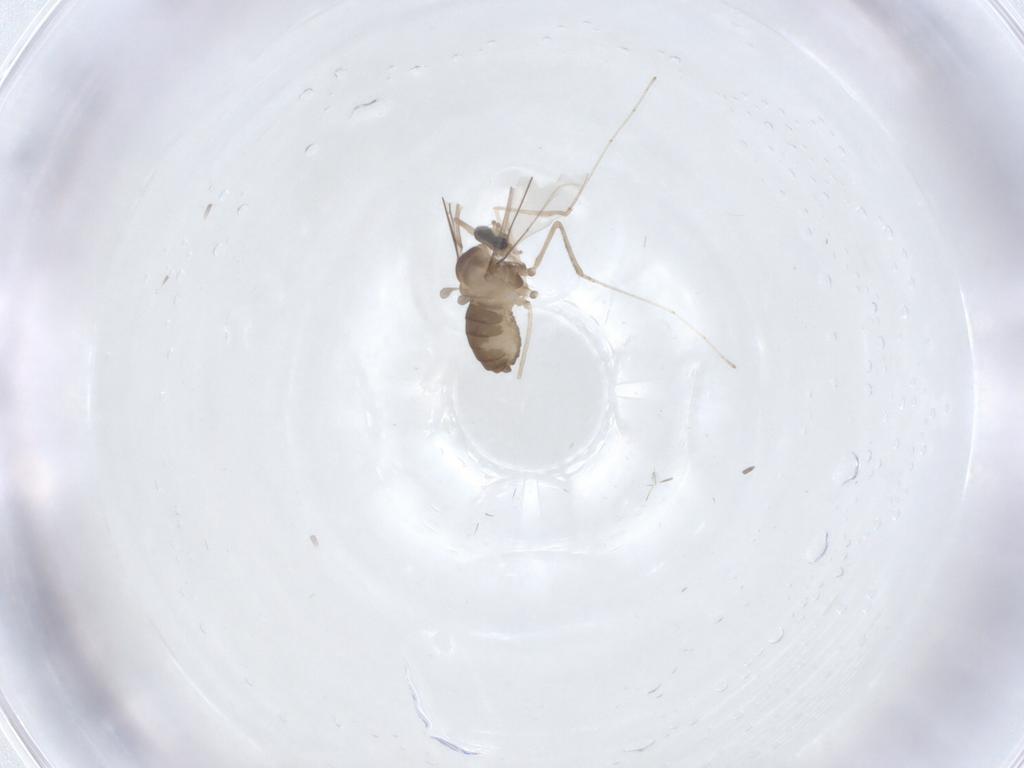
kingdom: Animalia
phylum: Arthropoda
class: Insecta
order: Diptera
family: Cecidomyiidae
